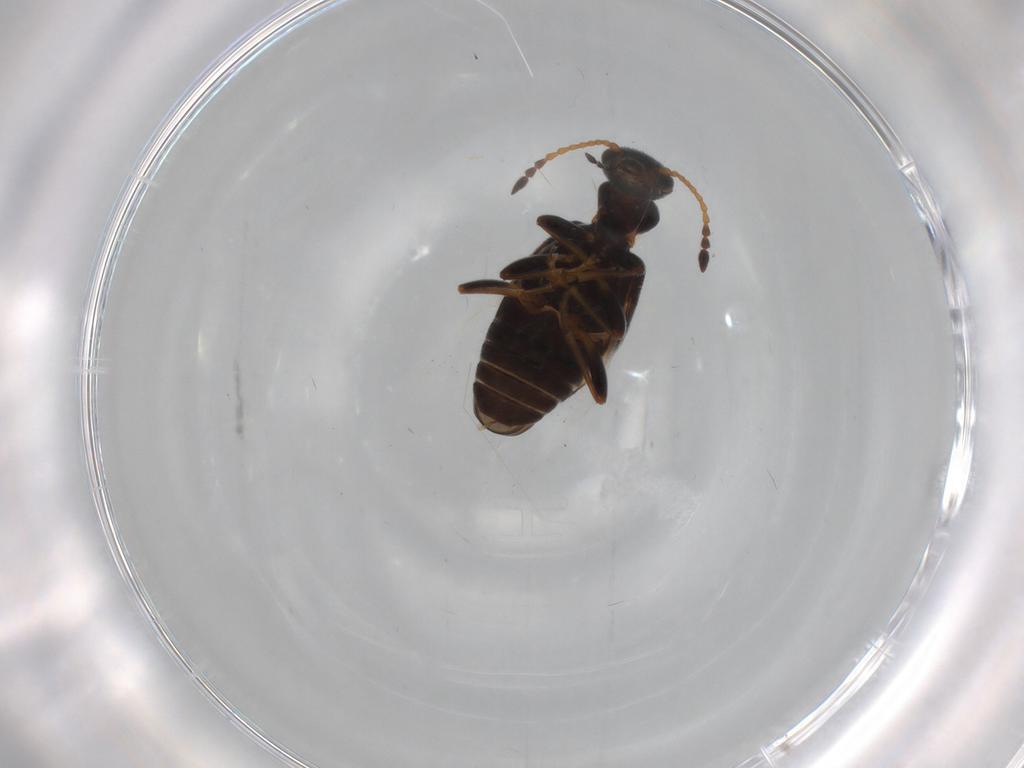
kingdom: Animalia
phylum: Arthropoda
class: Insecta
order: Coleoptera
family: Anthicidae
